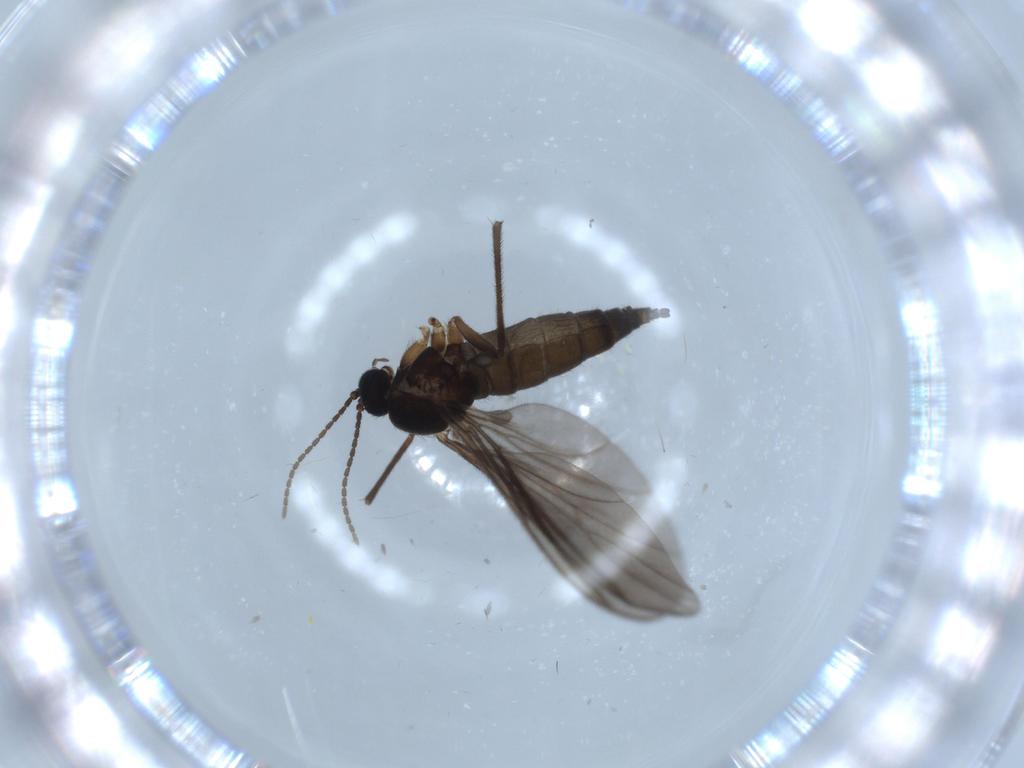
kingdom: Animalia
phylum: Arthropoda
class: Insecta
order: Diptera
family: Sciaridae
